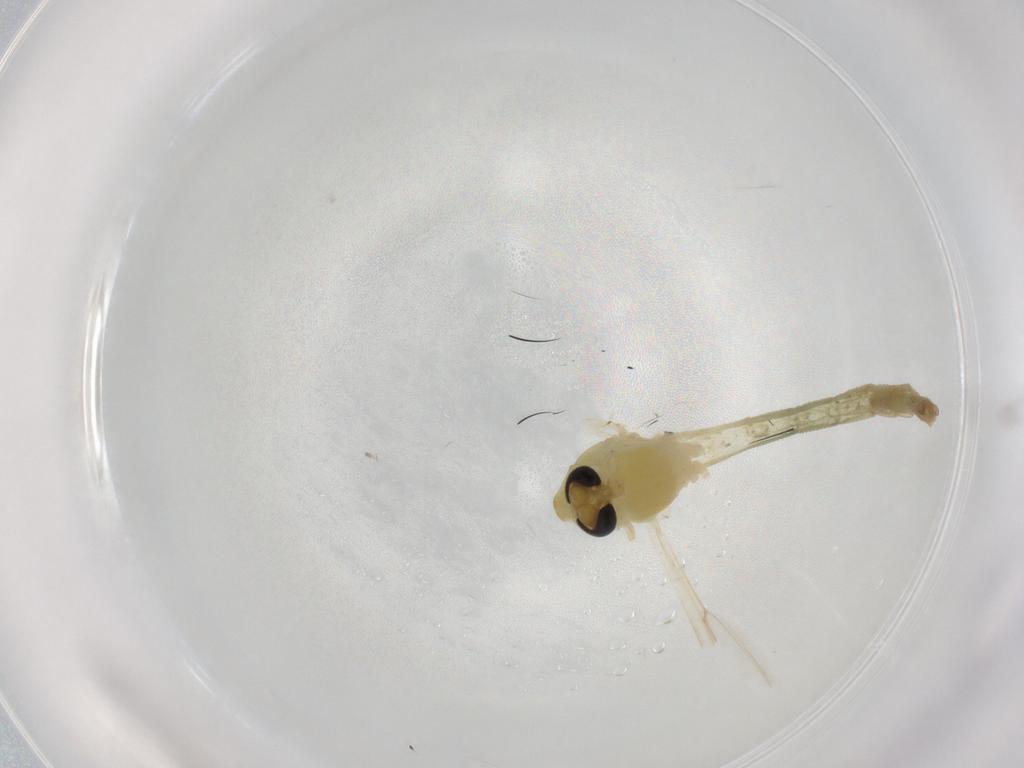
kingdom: Animalia
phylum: Arthropoda
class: Insecta
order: Diptera
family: Chironomidae
